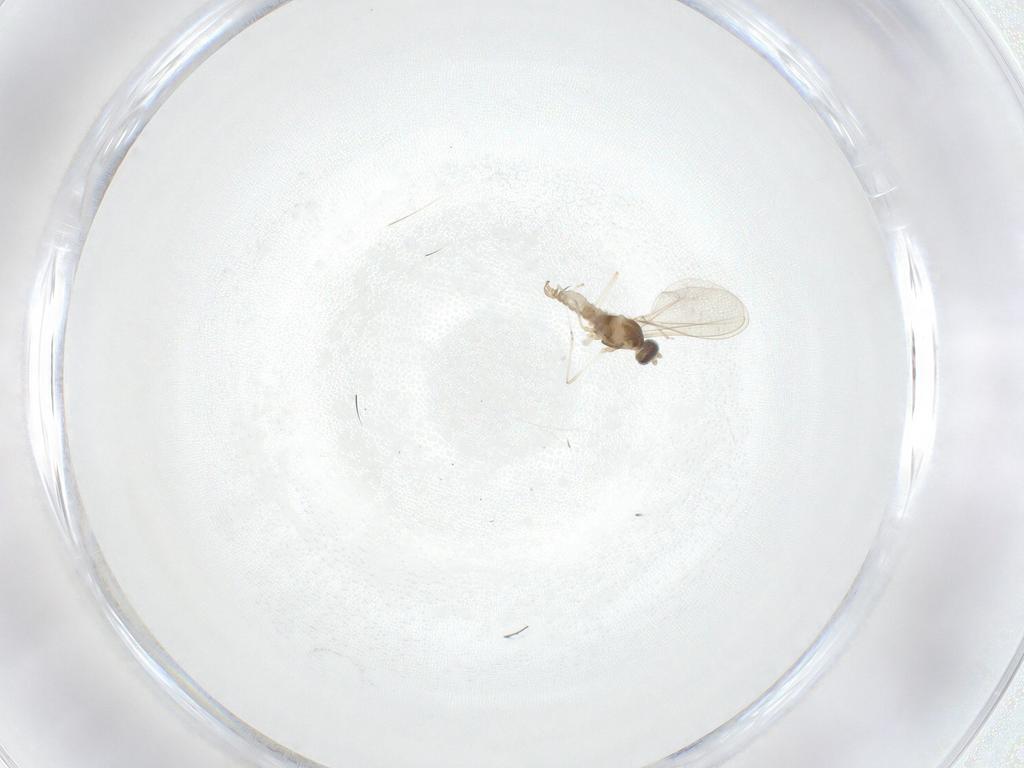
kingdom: Animalia
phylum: Arthropoda
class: Insecta
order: Diptera
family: Cecidomyiidae
